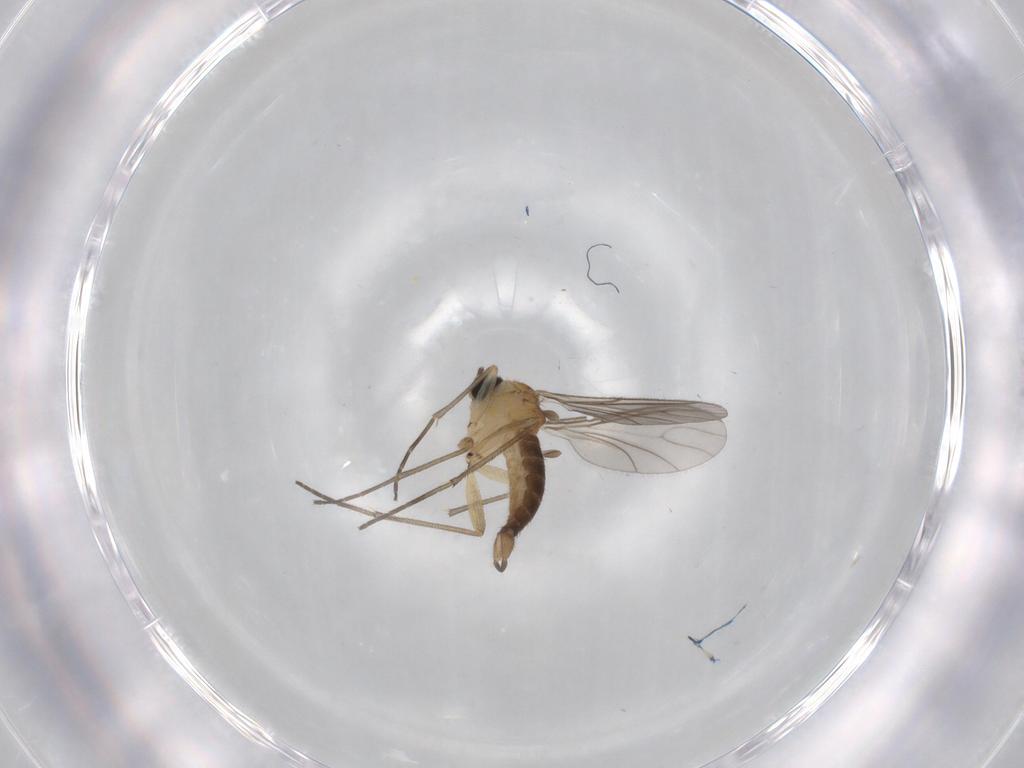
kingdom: Animalia
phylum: Arthropoda
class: Insecta
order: Diptera
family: Sciaridae
